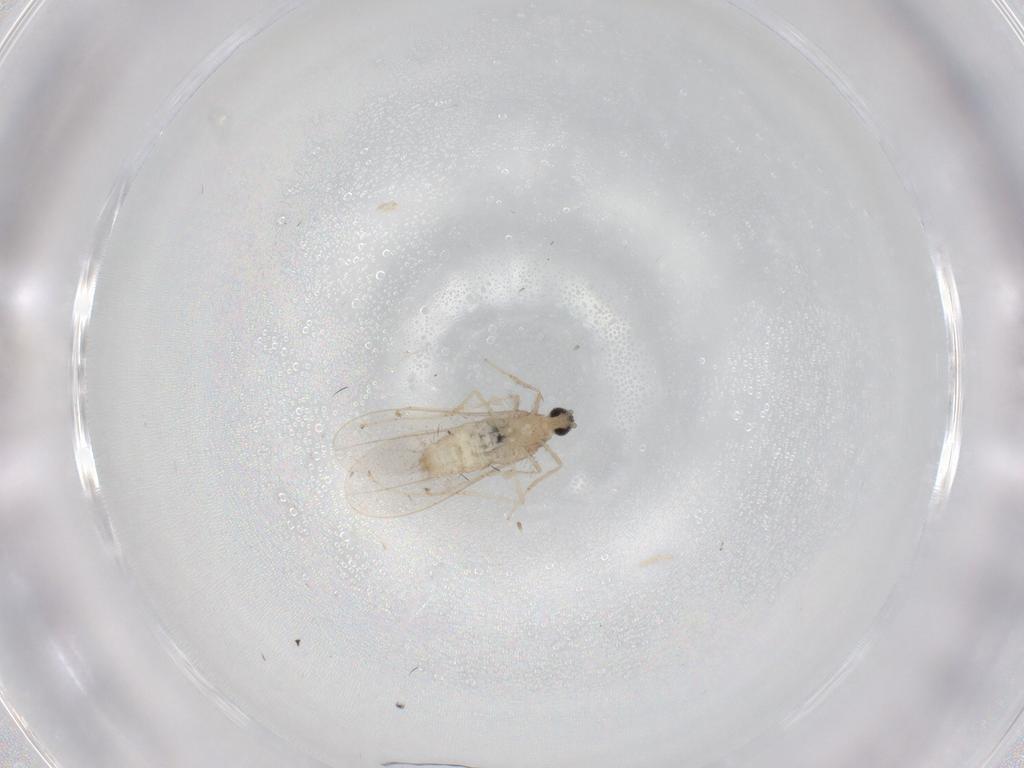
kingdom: Animalia
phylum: Arthropoda
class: Insecta
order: Diptera
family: Cecidomyiidae
